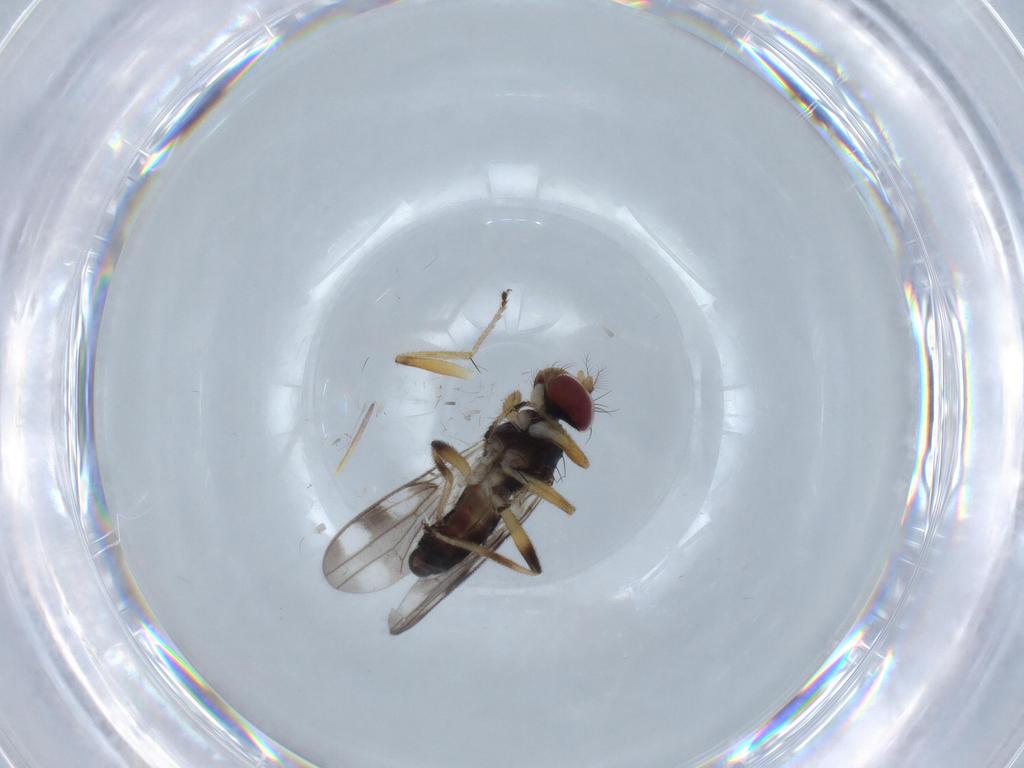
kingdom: Animalia
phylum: Arthropoda
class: Insecta
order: Diptera
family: Periscelididae
